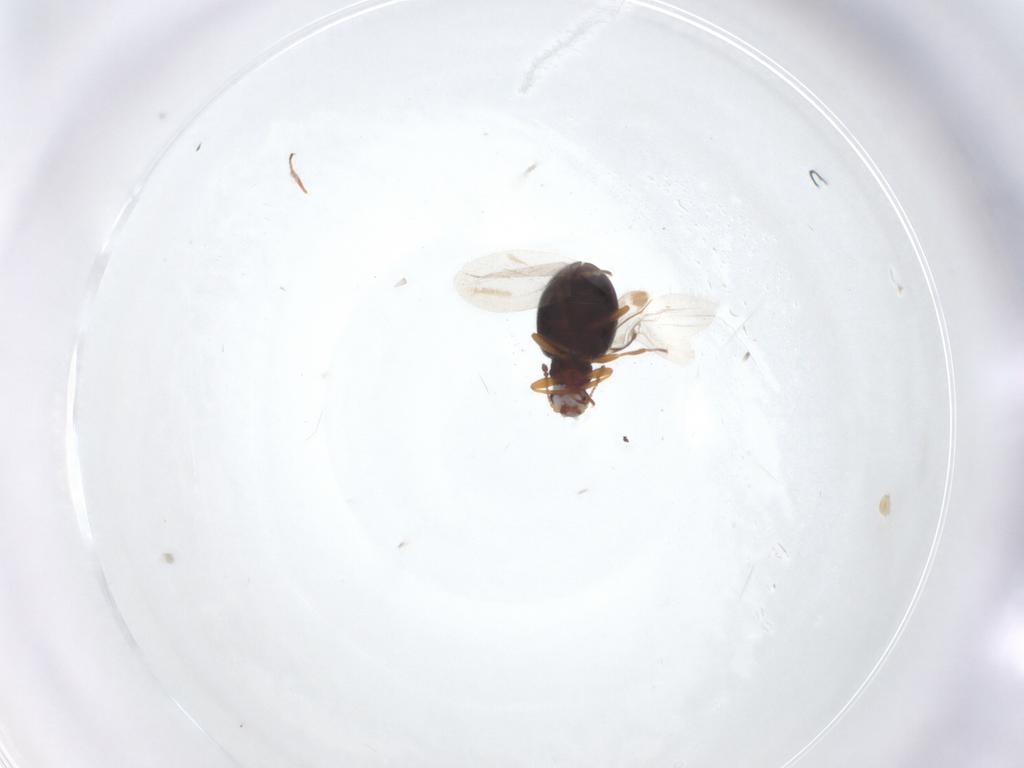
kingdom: Animalia
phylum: Arthropoda
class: Insecta
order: Coleoptera
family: Latridiidae
